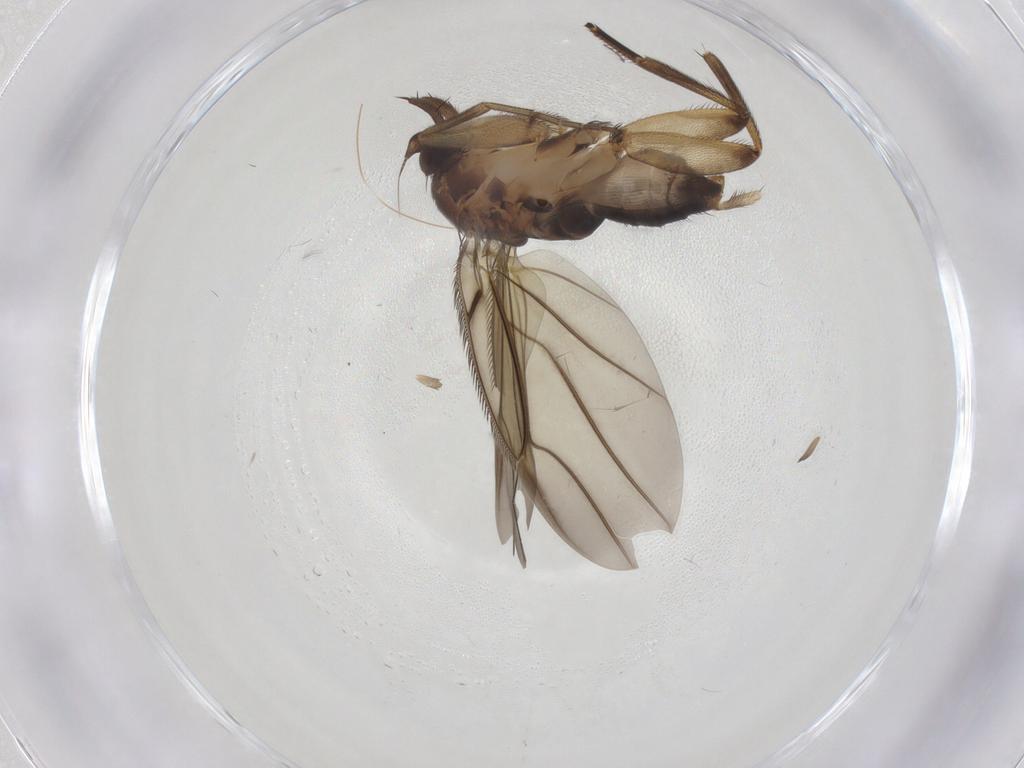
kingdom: Animalia
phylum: Arthropoda
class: Insecta
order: Diptera
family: Phoridae
